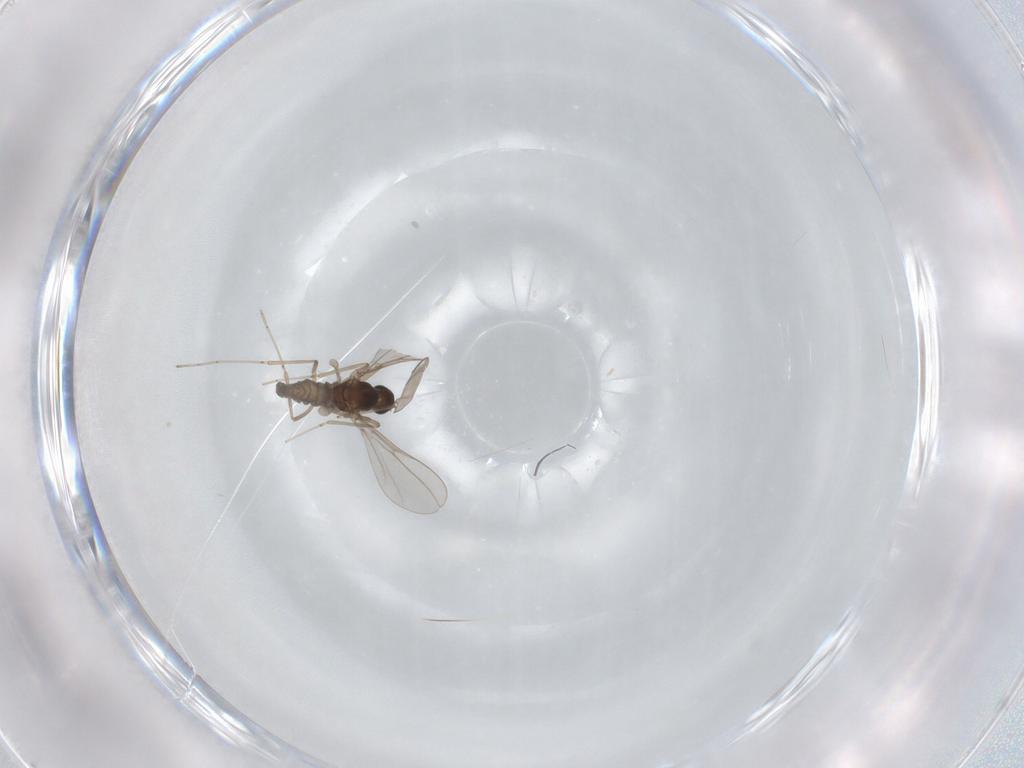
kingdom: Animalia
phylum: Arthropoda
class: Insecta
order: Diptera
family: Cecidomyiidae
